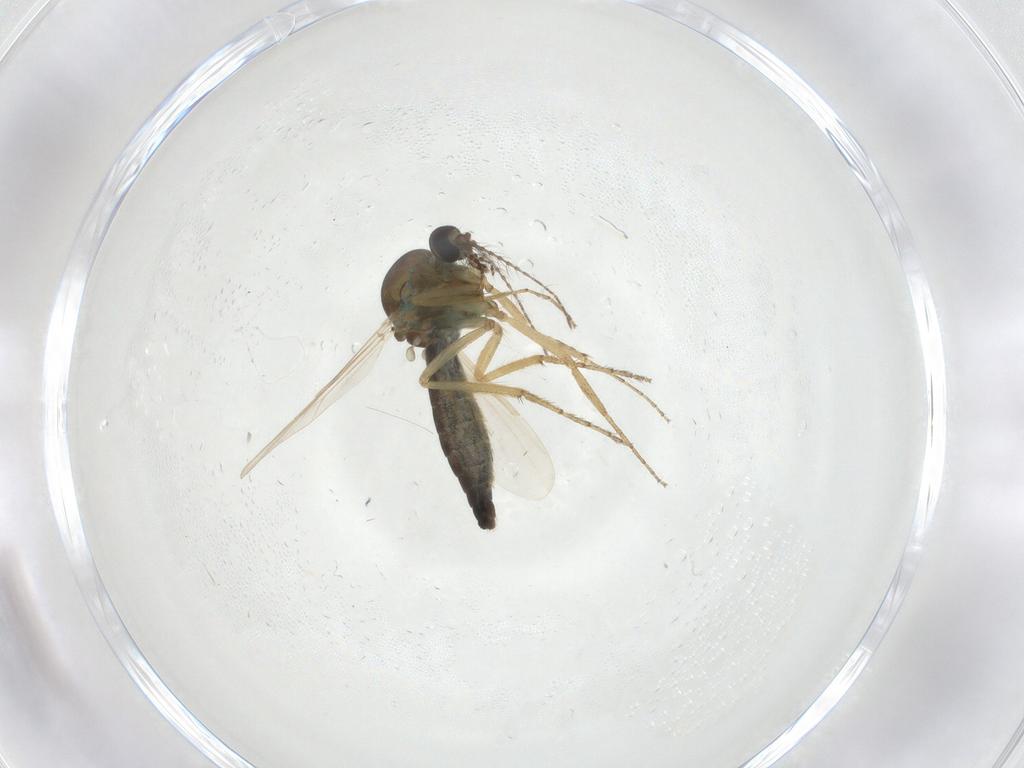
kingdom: Animalia
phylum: Arthropoda
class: Insecta
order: Diptera
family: Ceratopogonidae
